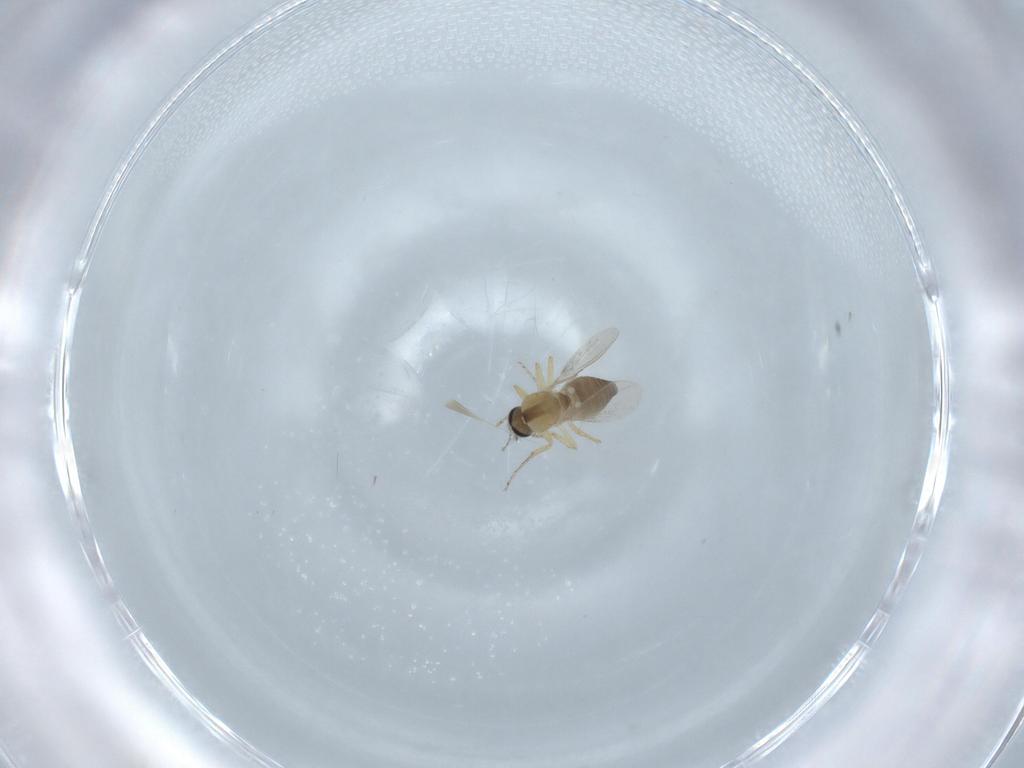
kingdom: Animalia
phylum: Arthropoda
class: Insecta
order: Diptera
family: Ceratopogonidae
